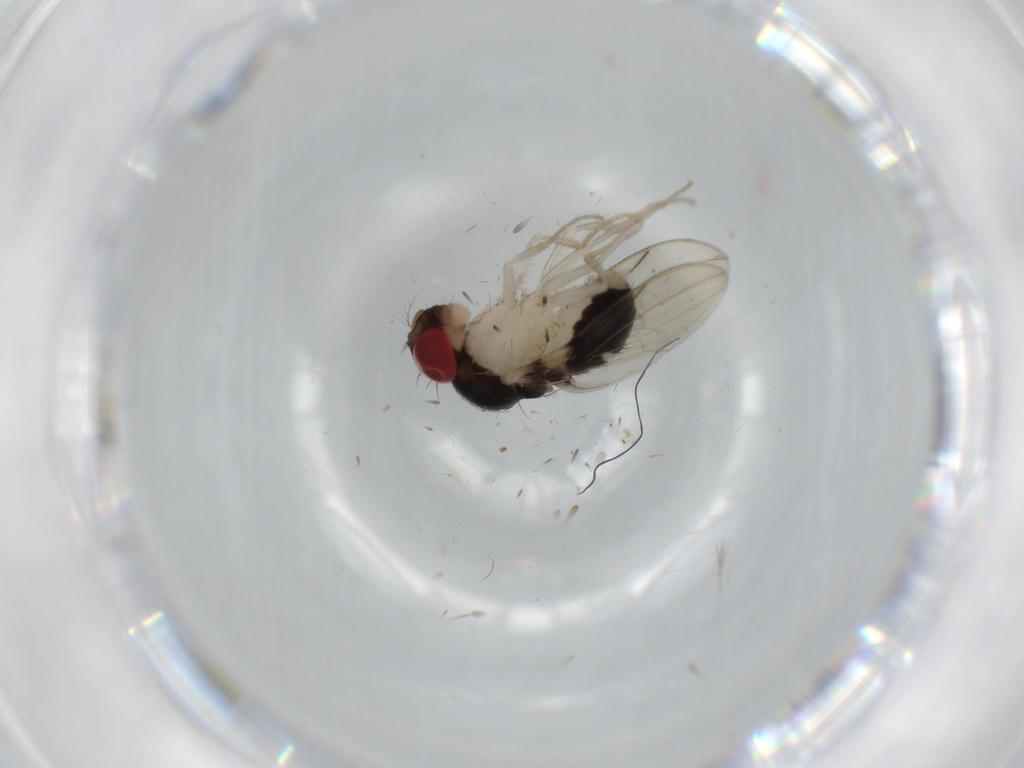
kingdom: Animalia
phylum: Arthropoda
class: Insecta
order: Diptera
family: Drosophilidae
